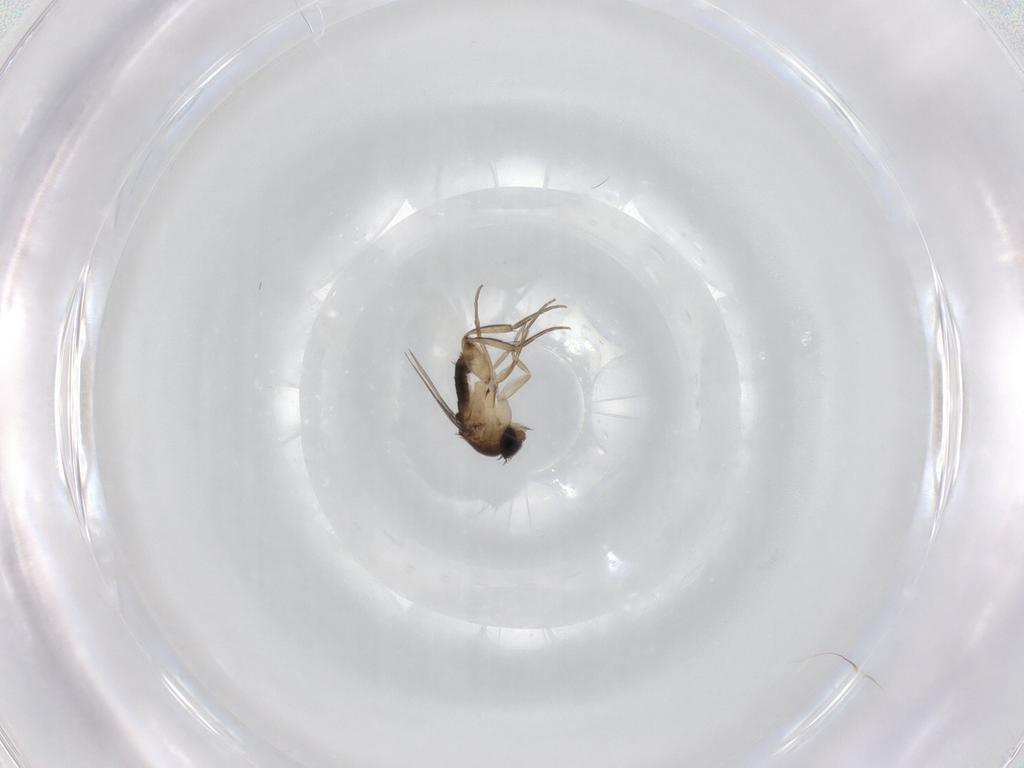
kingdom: Animalia
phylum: Arthropoda
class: Insecta
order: Diptera
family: Phoridae
